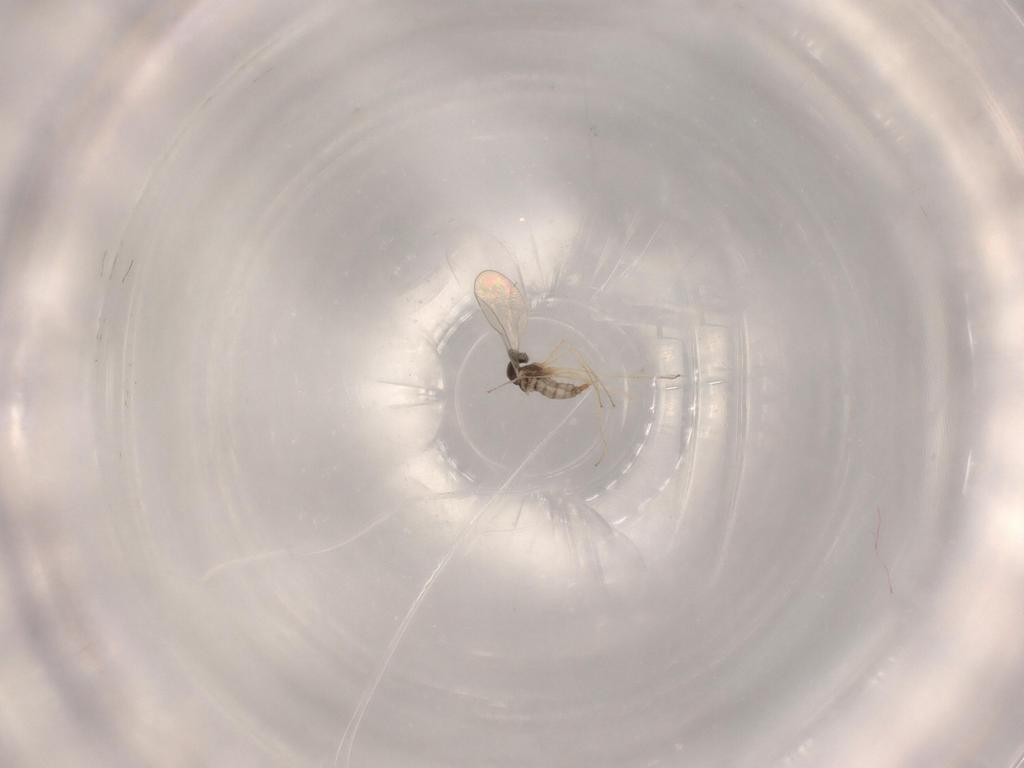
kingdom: Animalia
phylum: Arthropoda
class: Insecta
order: Diptera
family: Cecidomyiidae
